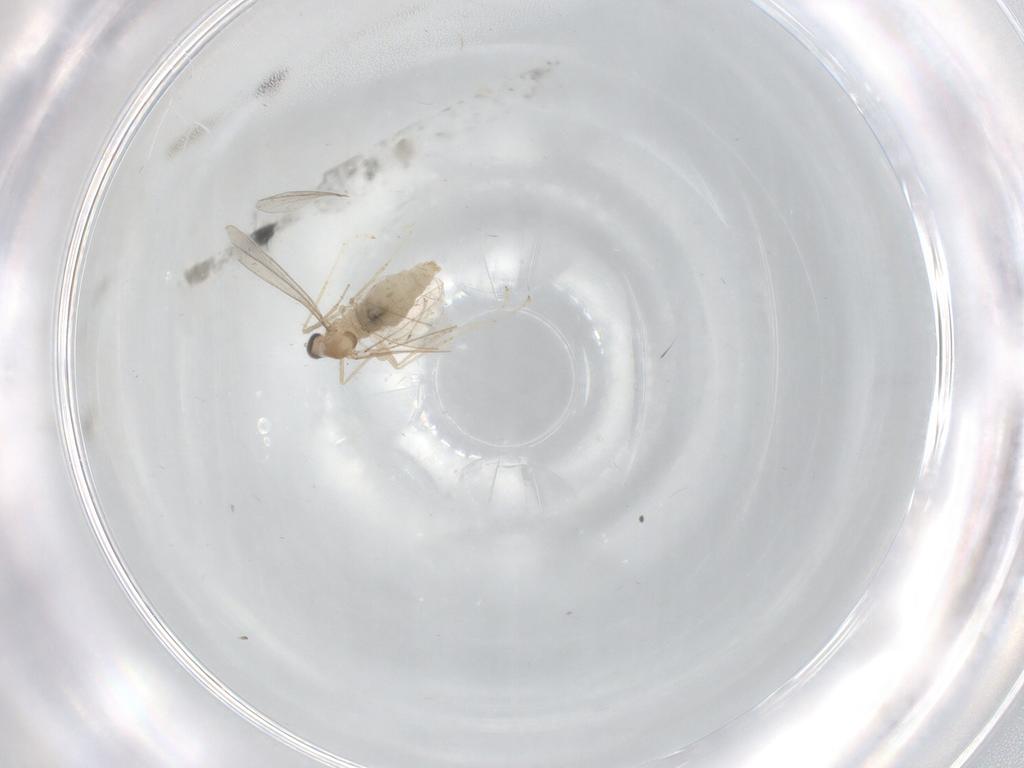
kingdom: Animalia
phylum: Arthropoda
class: Insecta
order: Diptera
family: Cecidomyiidae
